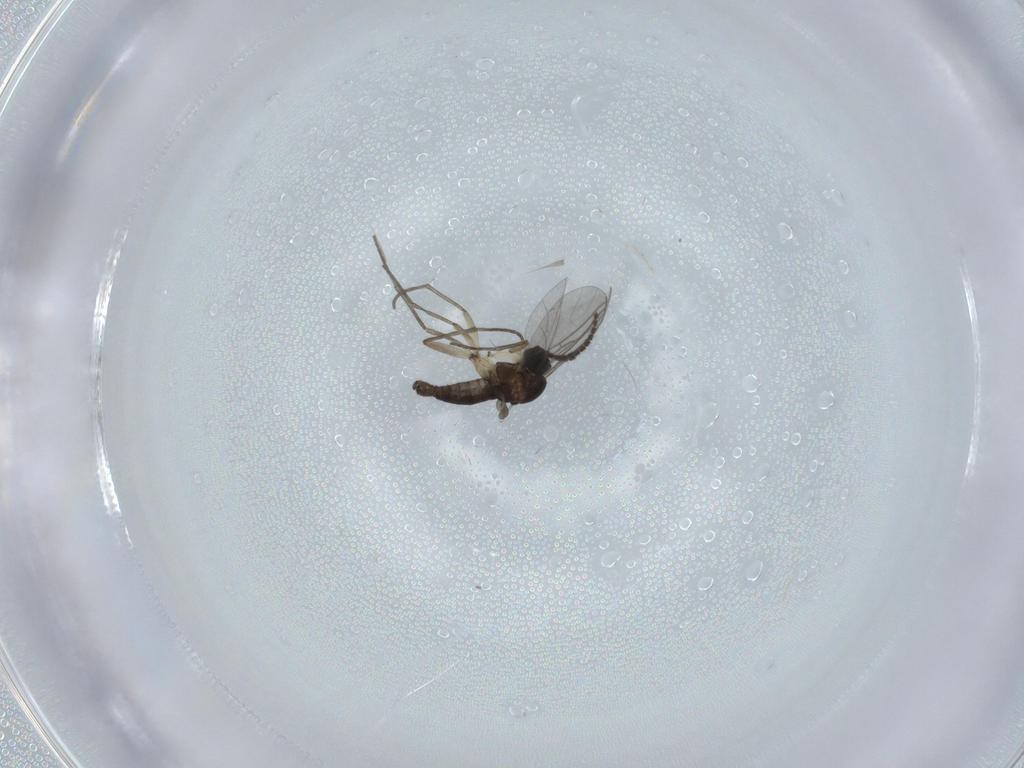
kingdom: Animalia
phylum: Arthropoda
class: Insecta
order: Diptera
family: Sciaridae
